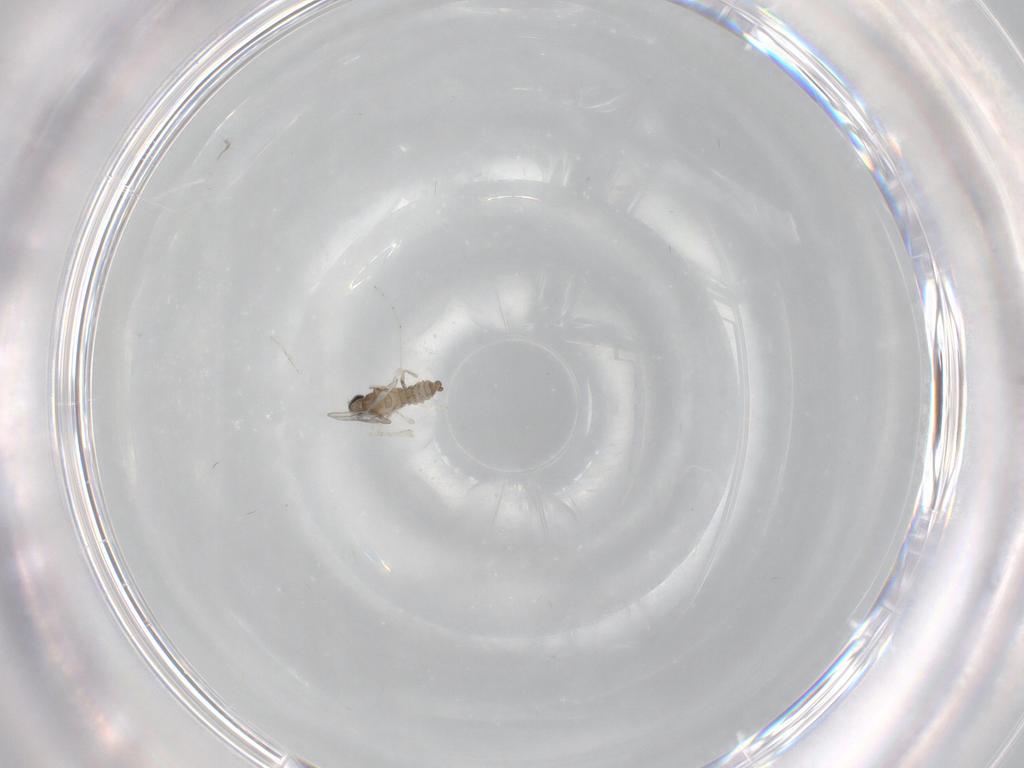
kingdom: Animalia
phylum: Arthropoda
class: Insecta
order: Diptera
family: Cecidomyiidae
